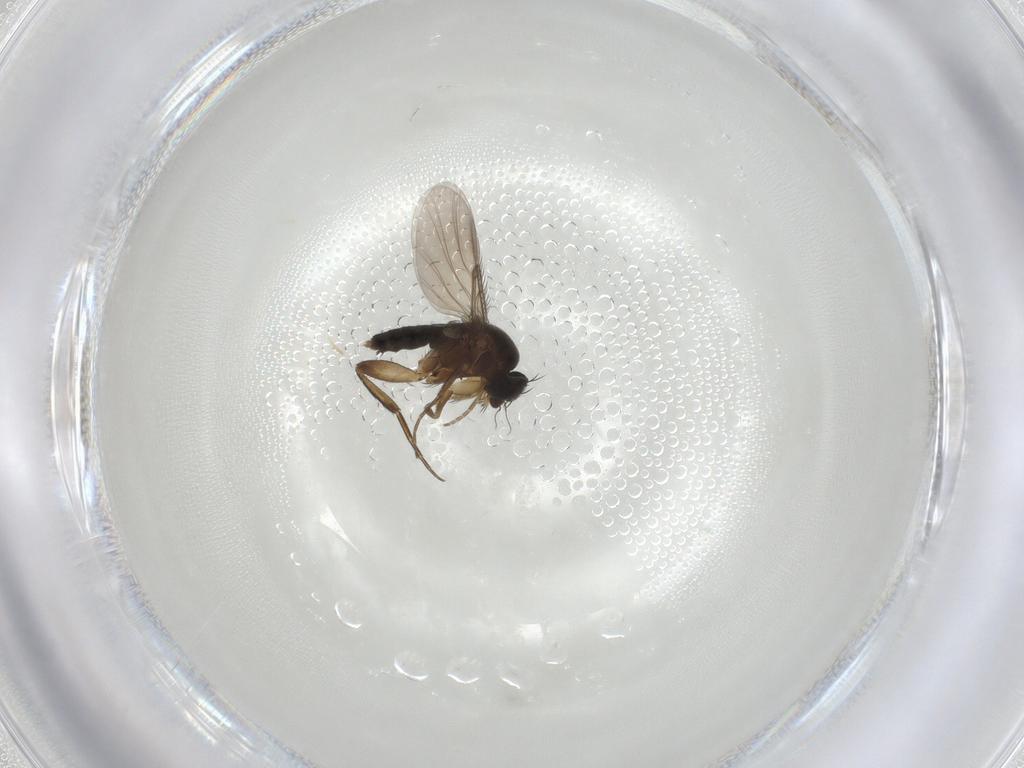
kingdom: Animalia
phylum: Arthropoda
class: Insecta
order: Diptera
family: Phoridae
